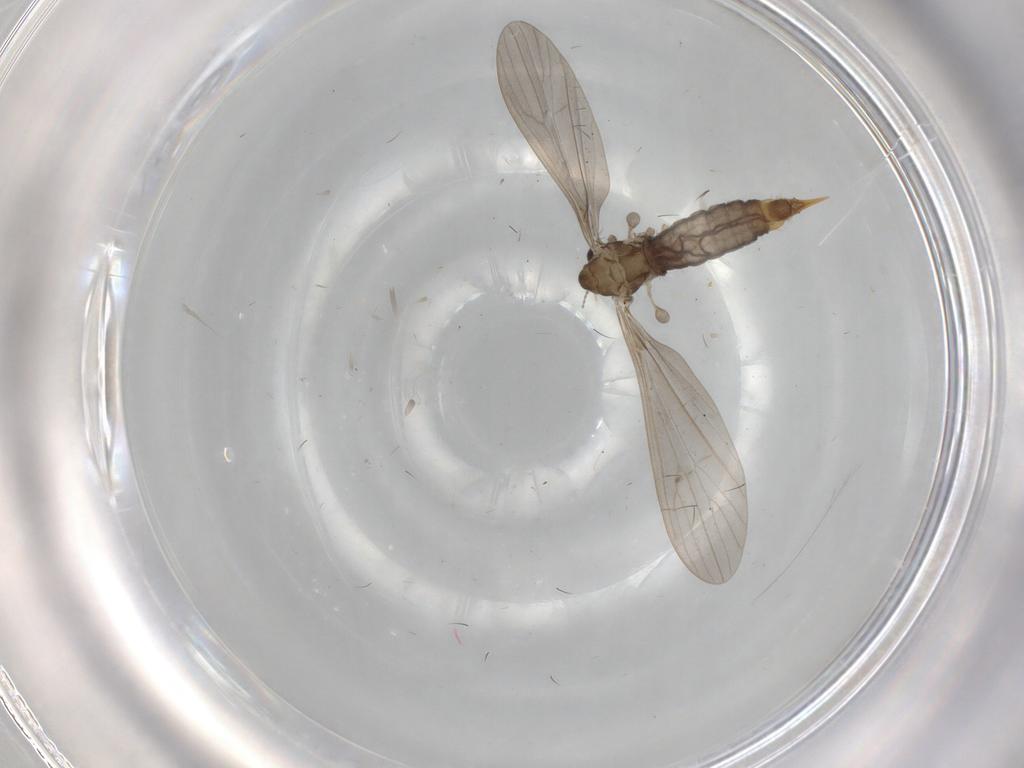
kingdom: Animalia
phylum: Arthropoda
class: Insecta
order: Diptera
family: Limoniidae
